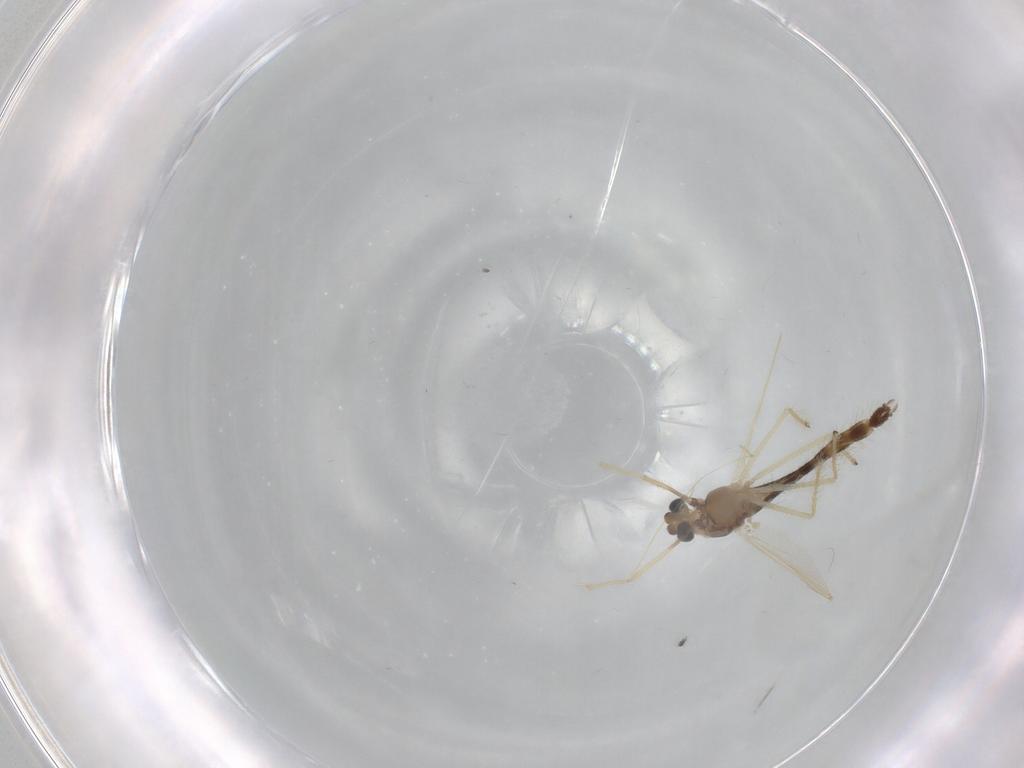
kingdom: Animalia
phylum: Arthropoda
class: Insecta
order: Diptera
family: Chironomidae
